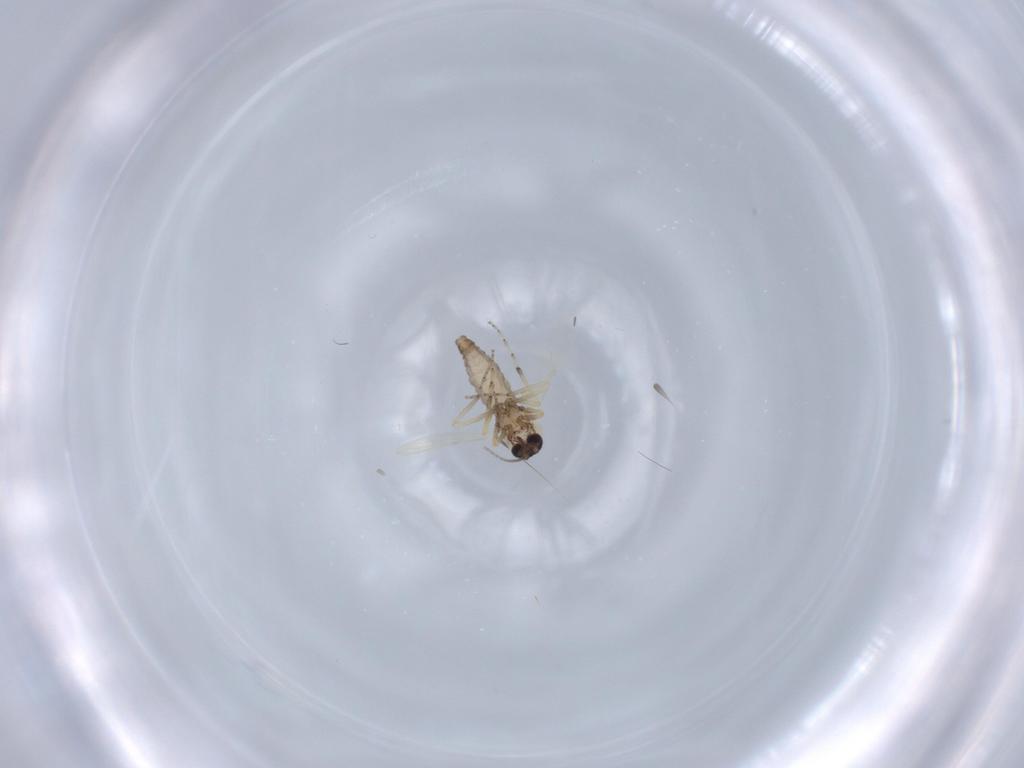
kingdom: Animalia
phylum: Arthropoda
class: Insecta
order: Diptera
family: Ceratopogonidae
